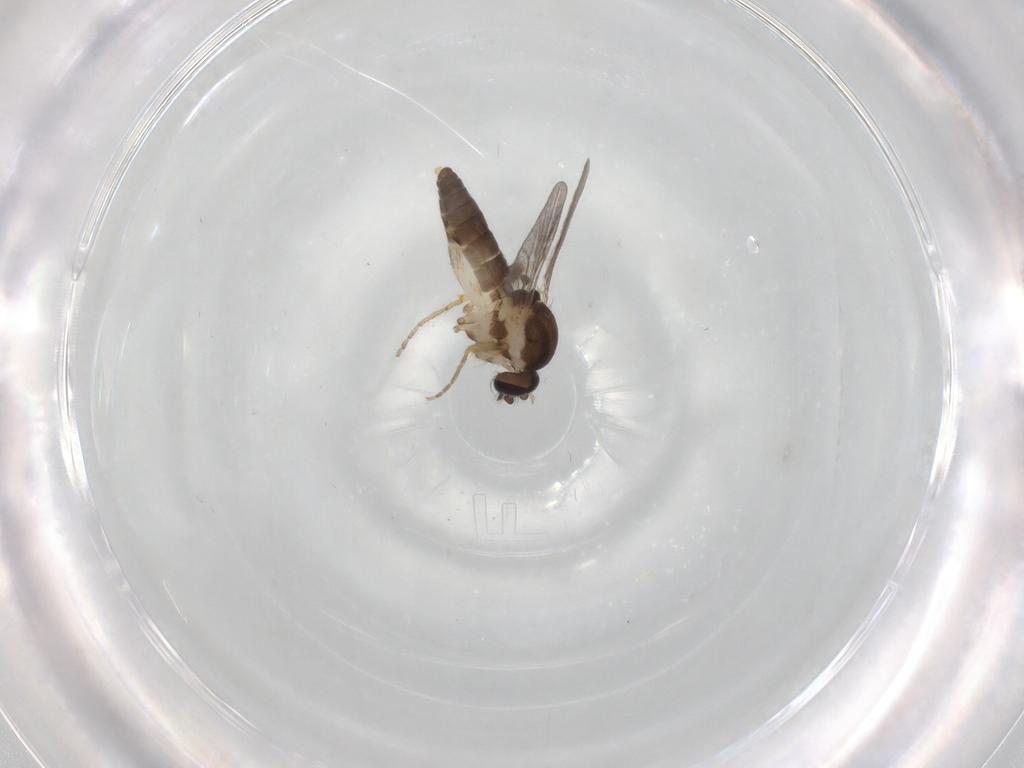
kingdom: Animalia
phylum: Arthropoda
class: Insecta
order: Diptera
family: Ceratopogonidae
